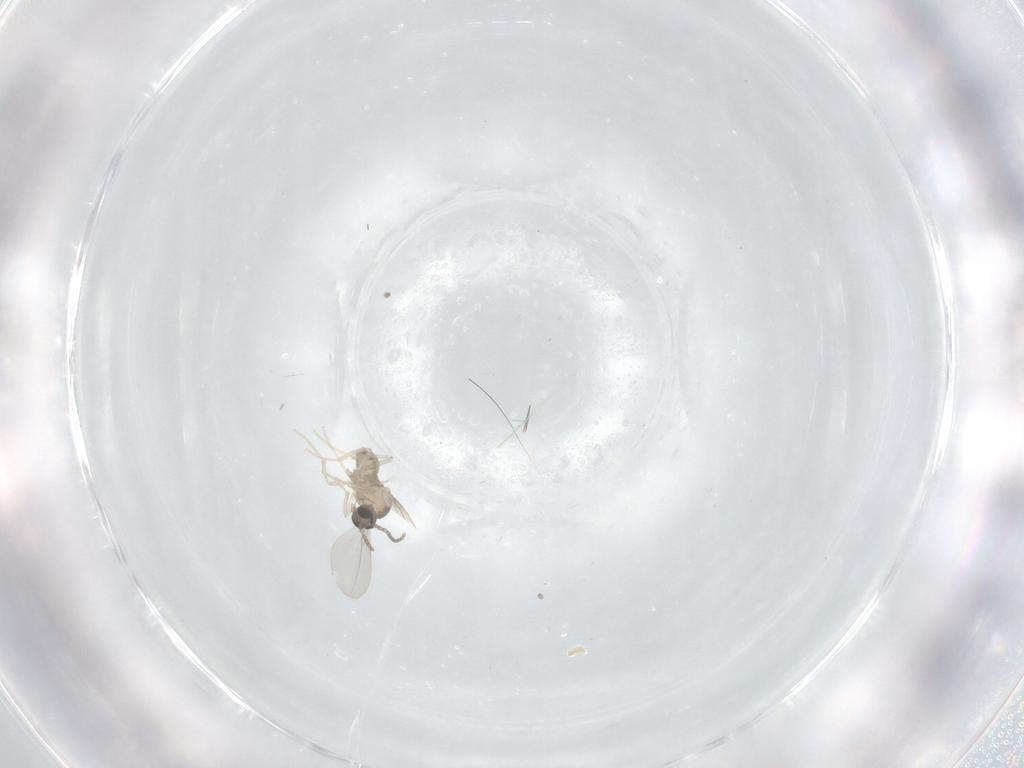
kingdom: Animalia
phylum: Arthropoda
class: Insecta
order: Diptera
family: Cecidomyiidae
